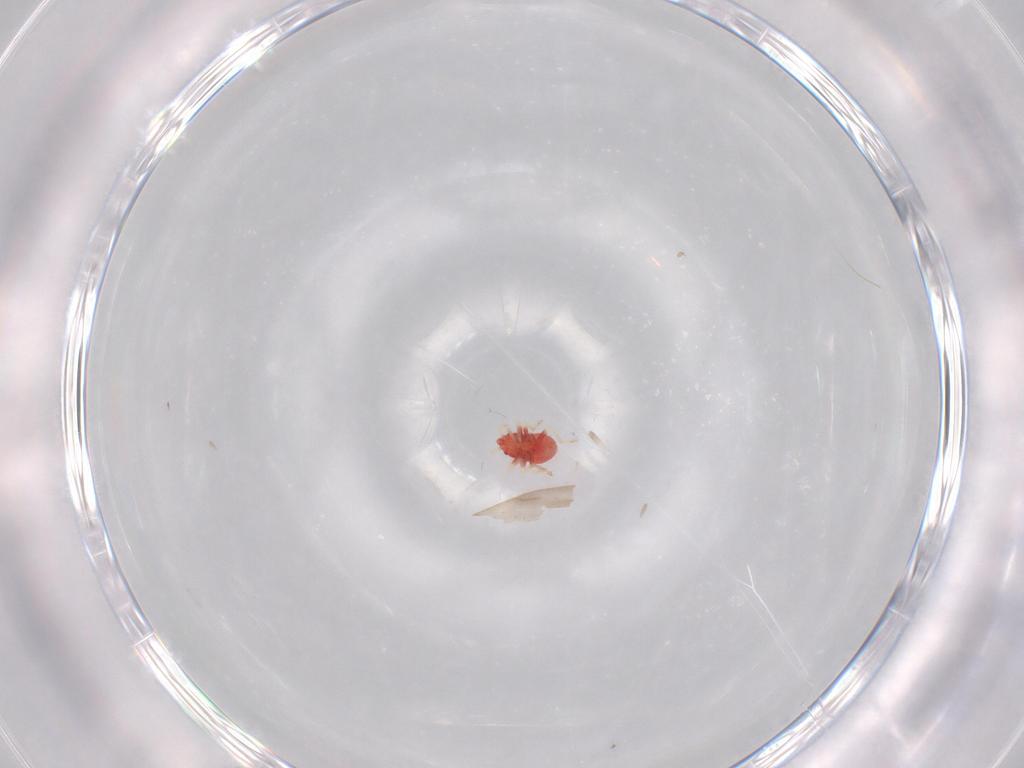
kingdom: Animalia
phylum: Arthropoda
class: Insecta
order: Hemiptera
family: Anthocoridae
